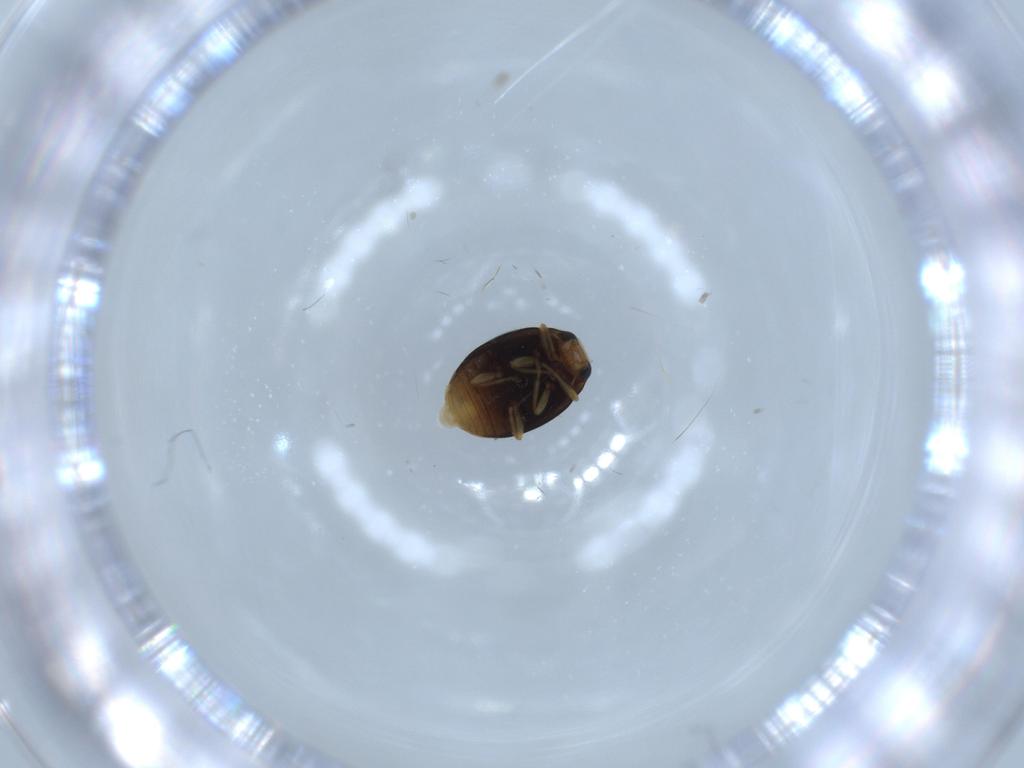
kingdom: Animalia
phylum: Arthropoda
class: Insecta
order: Coleoptera
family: Coccinellidae
